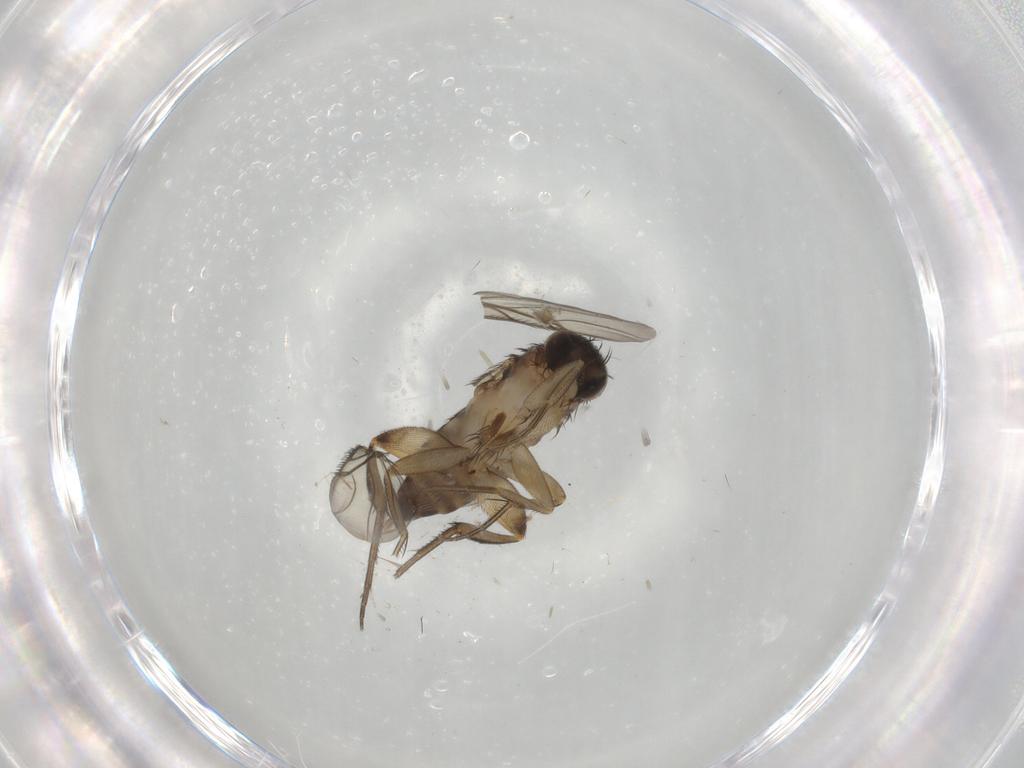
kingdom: Animalia
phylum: Arthropoda
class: Insecta
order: Diptera
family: Phoridae
